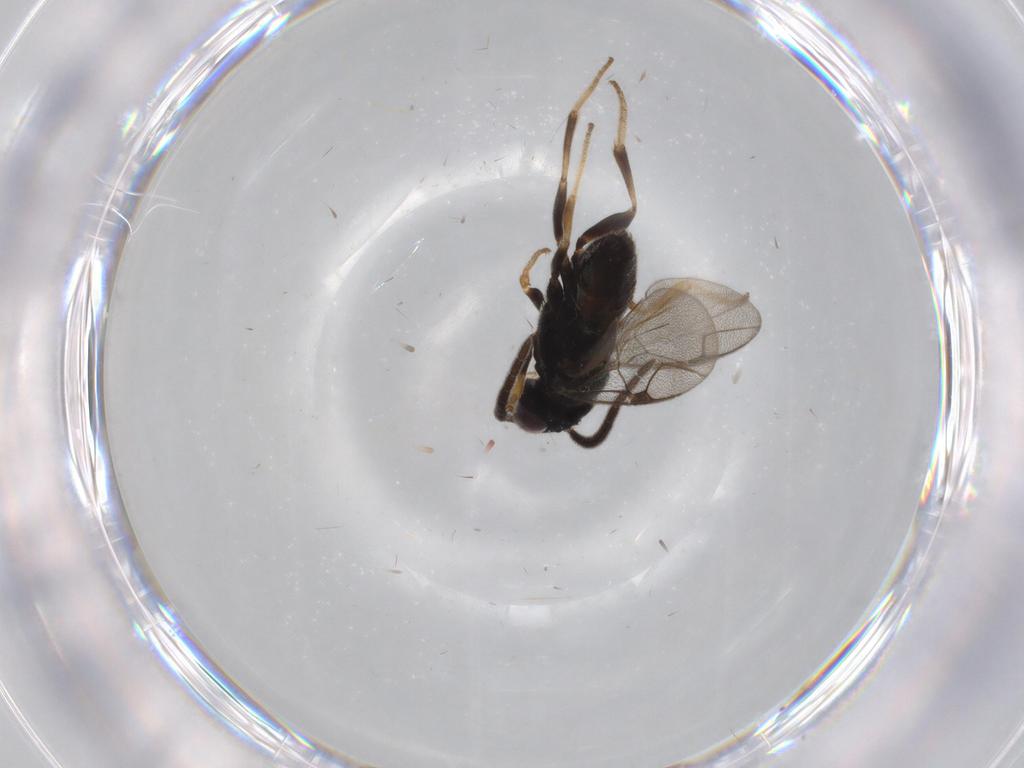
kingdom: Animalia
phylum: Arthropoda
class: Insecta
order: Hymenoptera
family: Dryinidae
